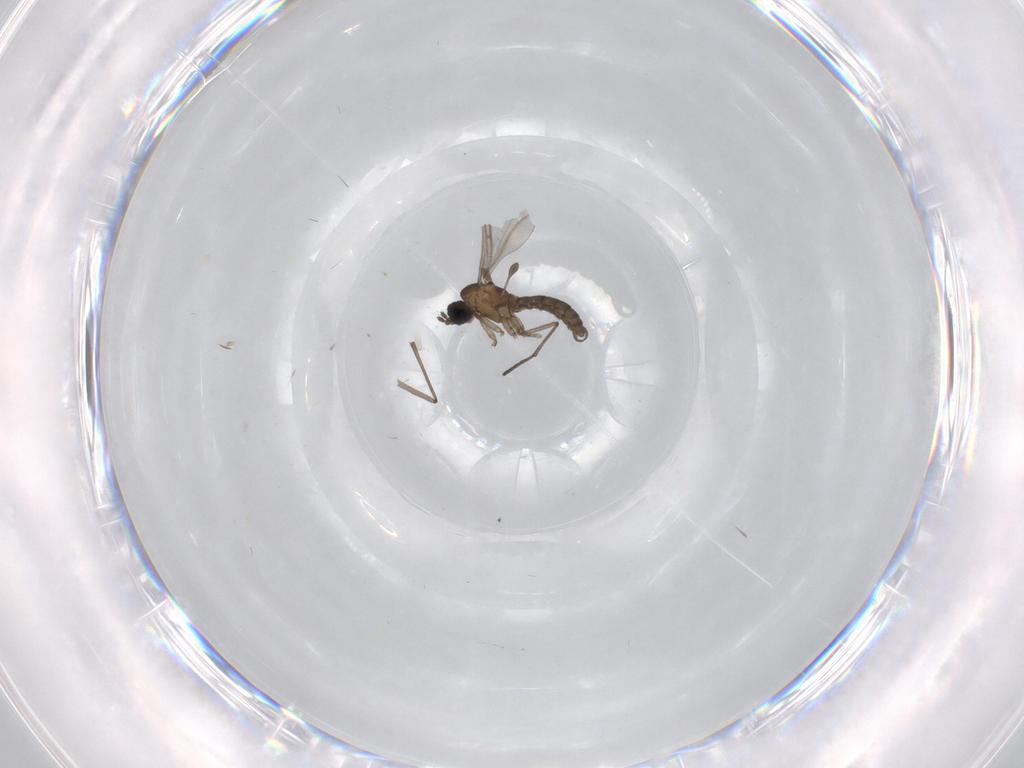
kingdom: Animalia
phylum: Arthropoda
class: Insecta
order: Diptera
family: Cecidomyiidae
